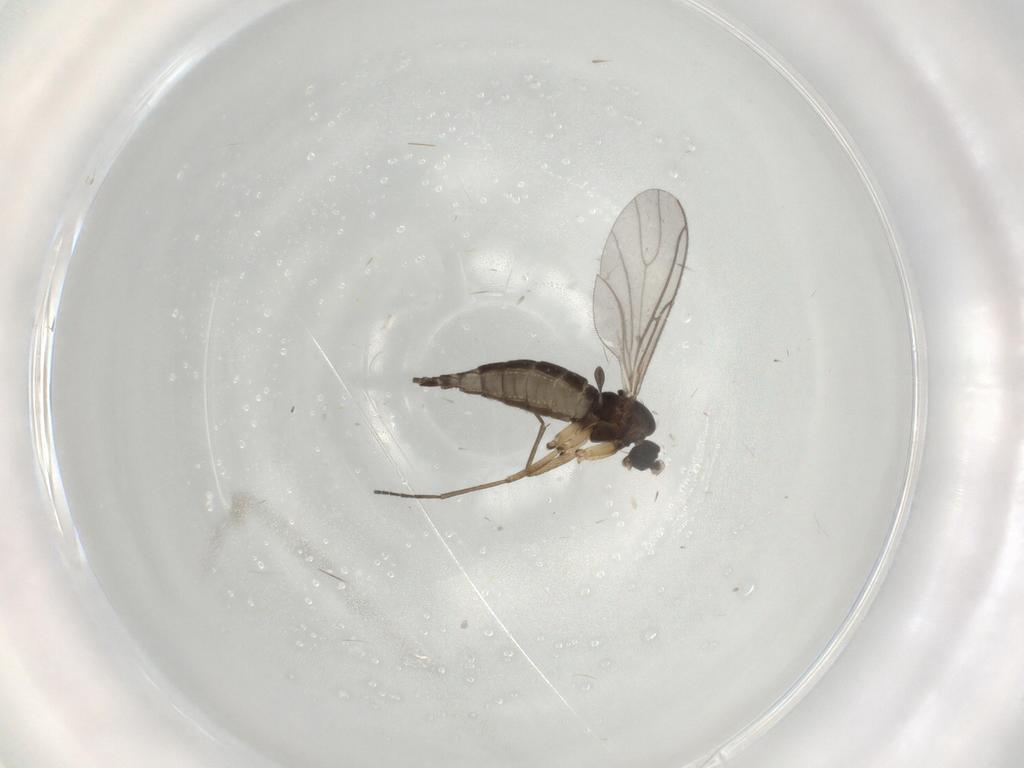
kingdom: Animalia
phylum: Arthropoda
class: Insecta
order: Diptera
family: Sciaridae
